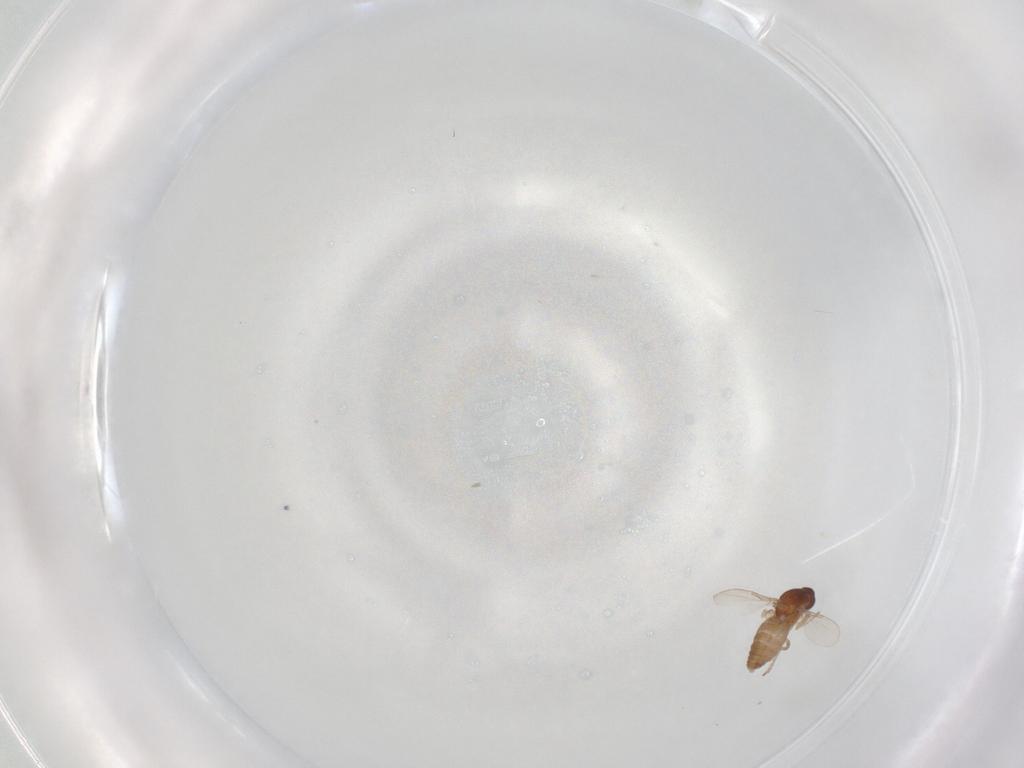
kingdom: Animalia
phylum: Arthropoda
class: Insecta
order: Diptera
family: Ceratopogonidae
